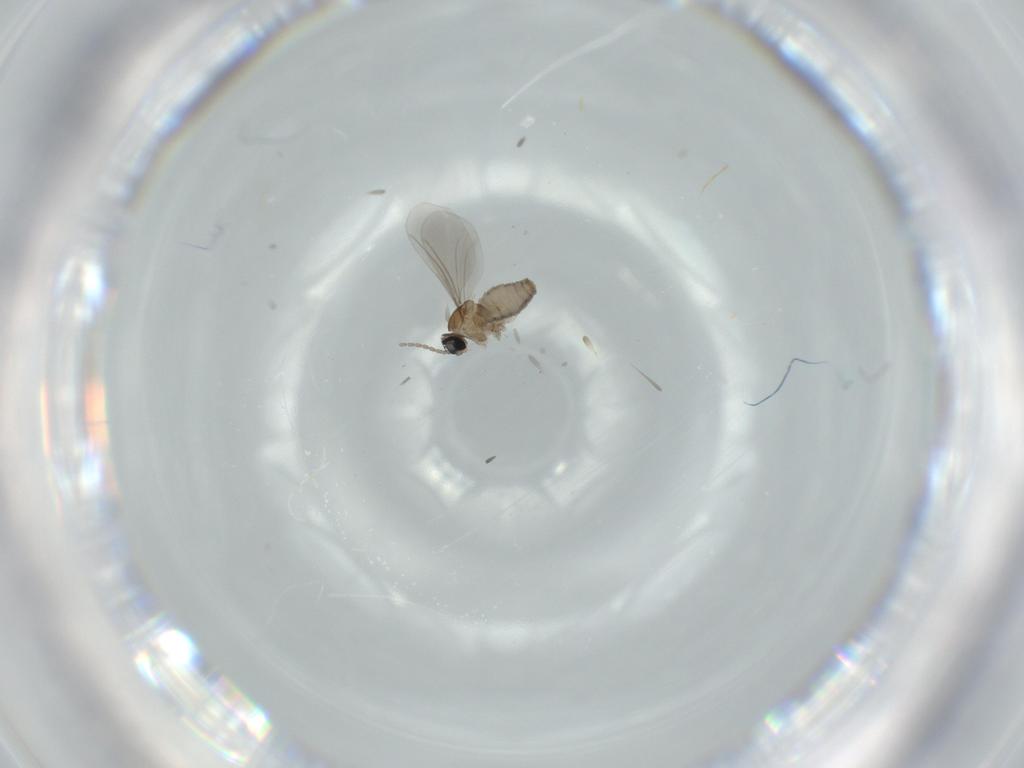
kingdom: Animalia
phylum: Arthropoda
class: Insecta
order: Diptera
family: Cecidomyiidae
